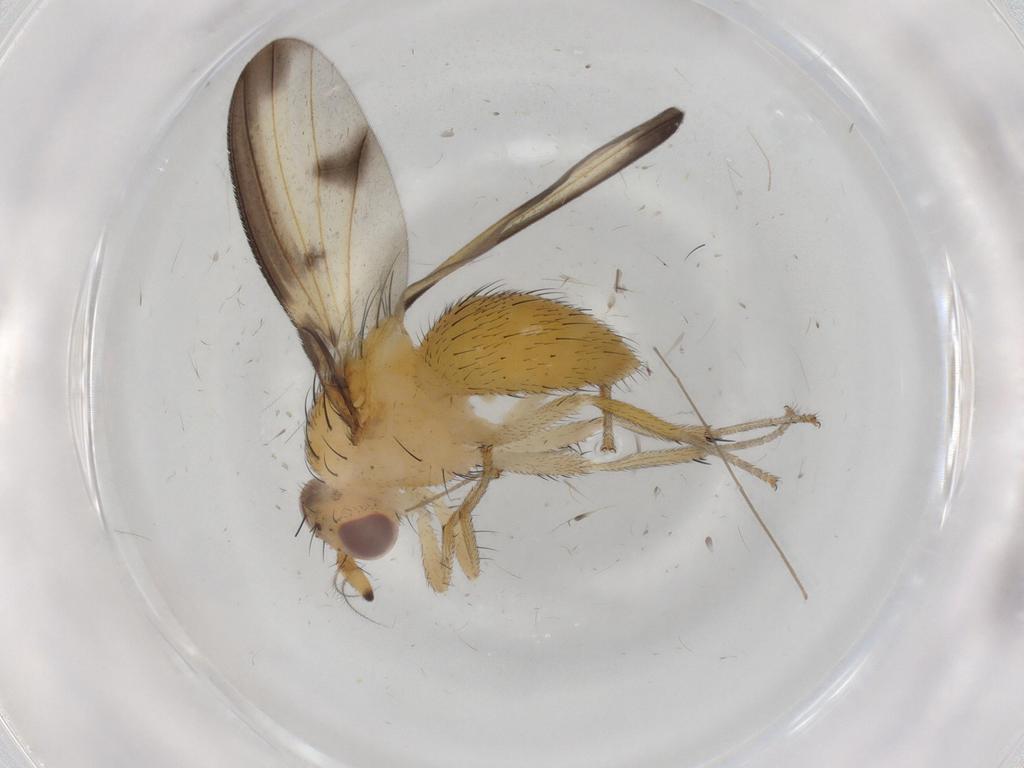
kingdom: Animalia
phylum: Arthropoda
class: Insecta
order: Diptera
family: Lauxaniidae
